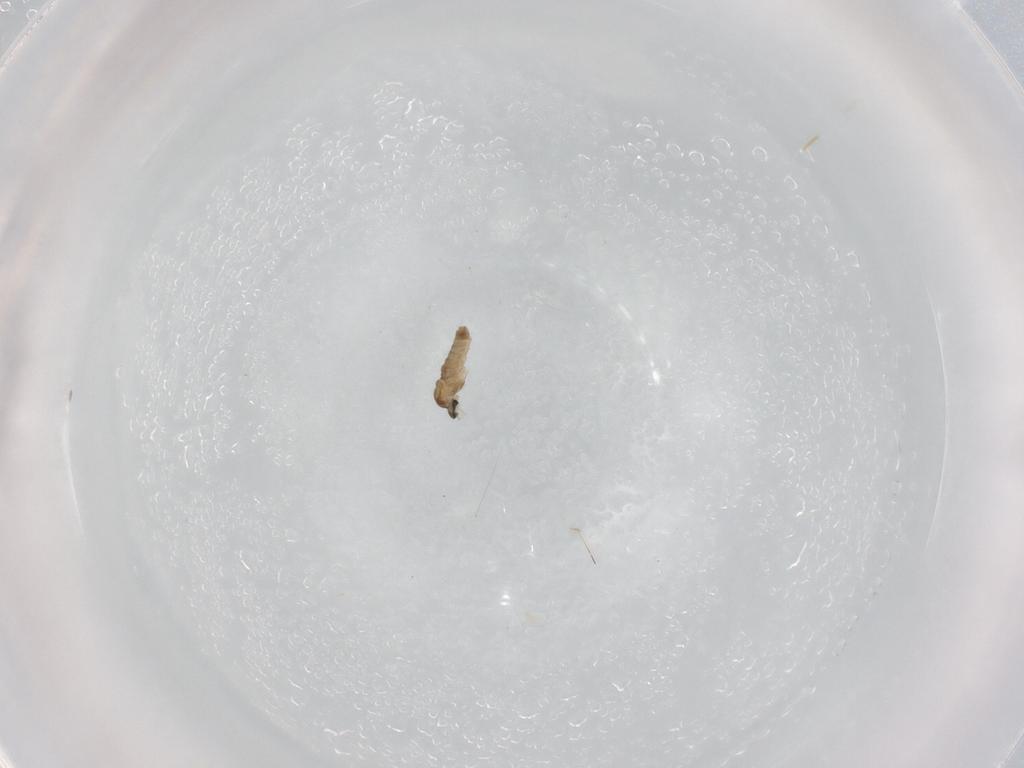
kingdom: Animalia
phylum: Arthropoda
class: Insecta
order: Diptera
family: Cecidomyiidae
